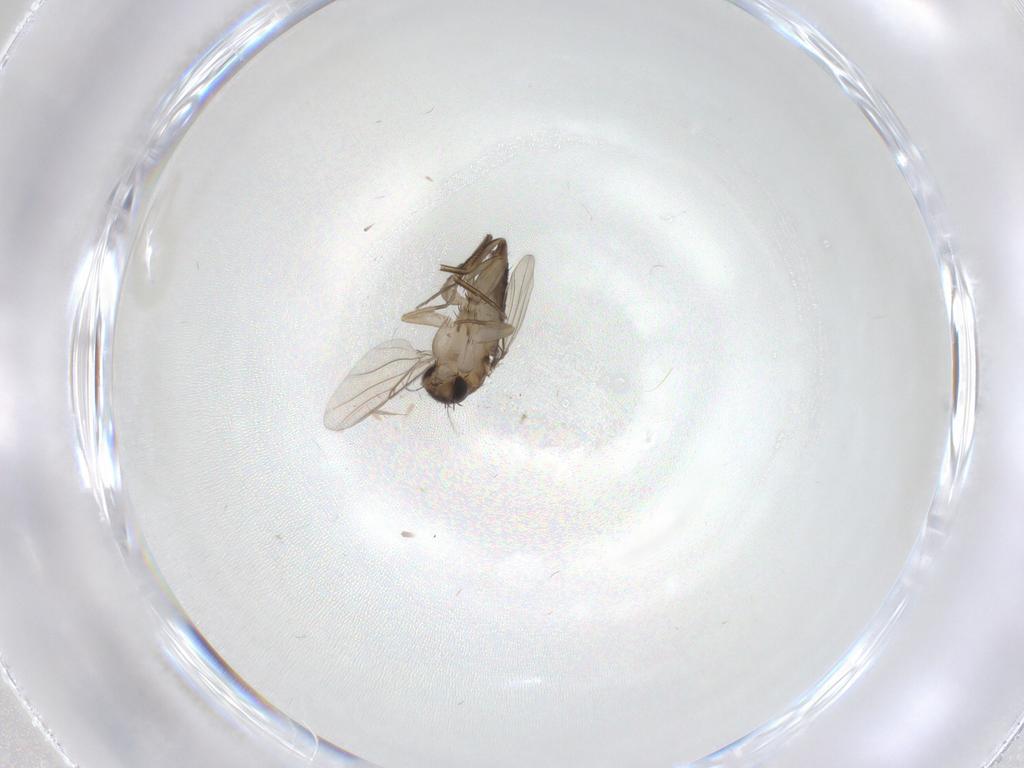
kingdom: Animalia
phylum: Arthropoda
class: Insecta
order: Diptera
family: Phoridae
